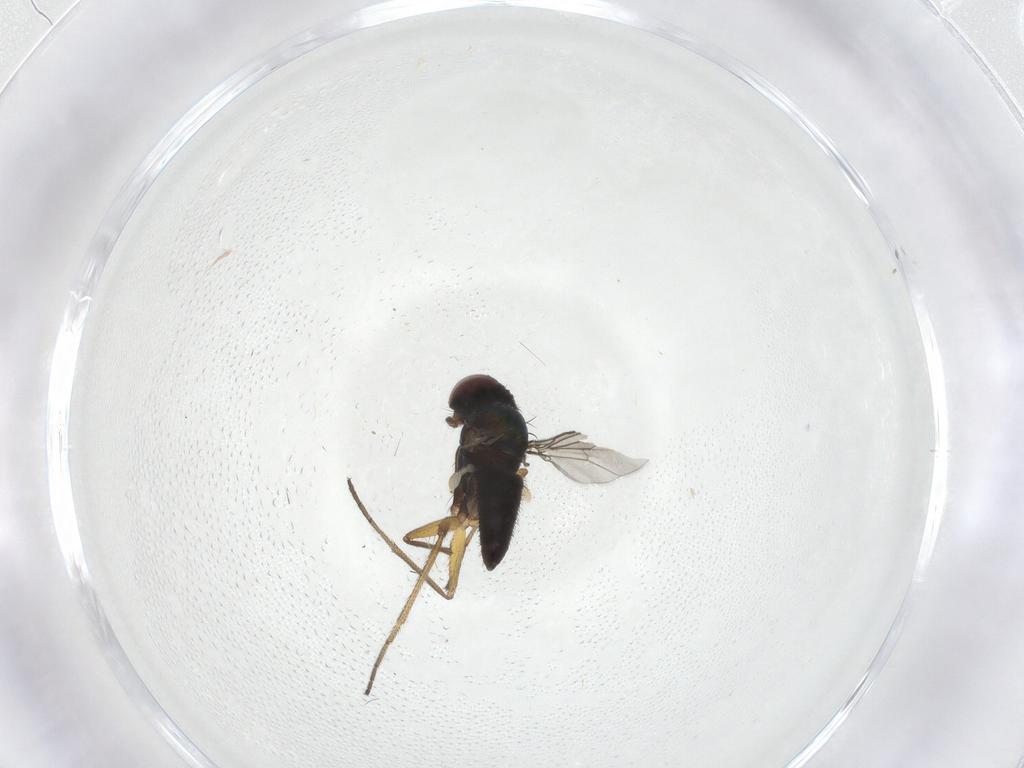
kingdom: Animalia
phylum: Arthropoda
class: Insecta
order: Diptera
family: Dolichopodidae
